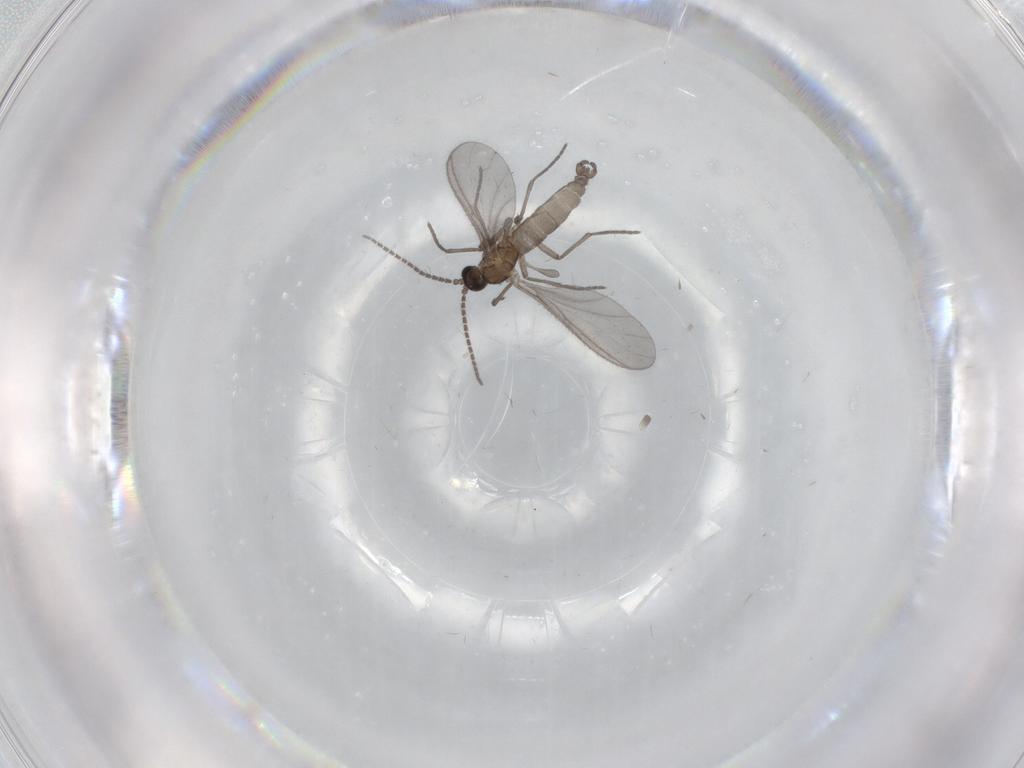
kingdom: Animalia
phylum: Arthropoda
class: Insecta
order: Diptera
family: Sciaridae
